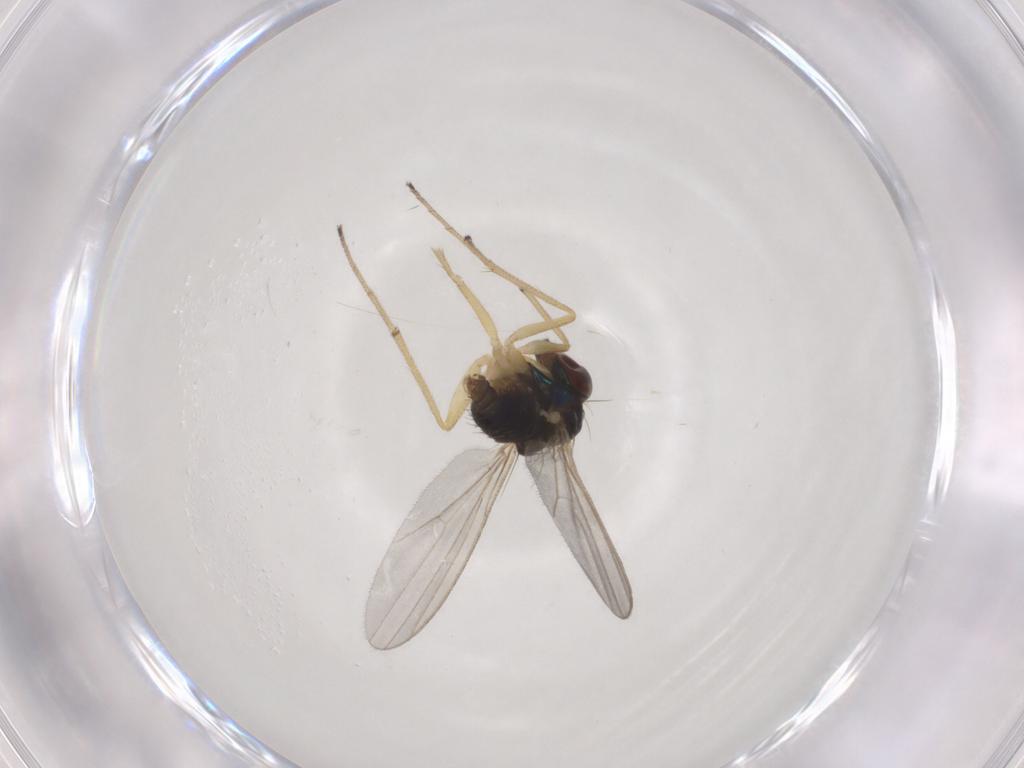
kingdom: Animalia
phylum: Arthropoda
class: Insecta
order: Diptera
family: Dolichopodidae
